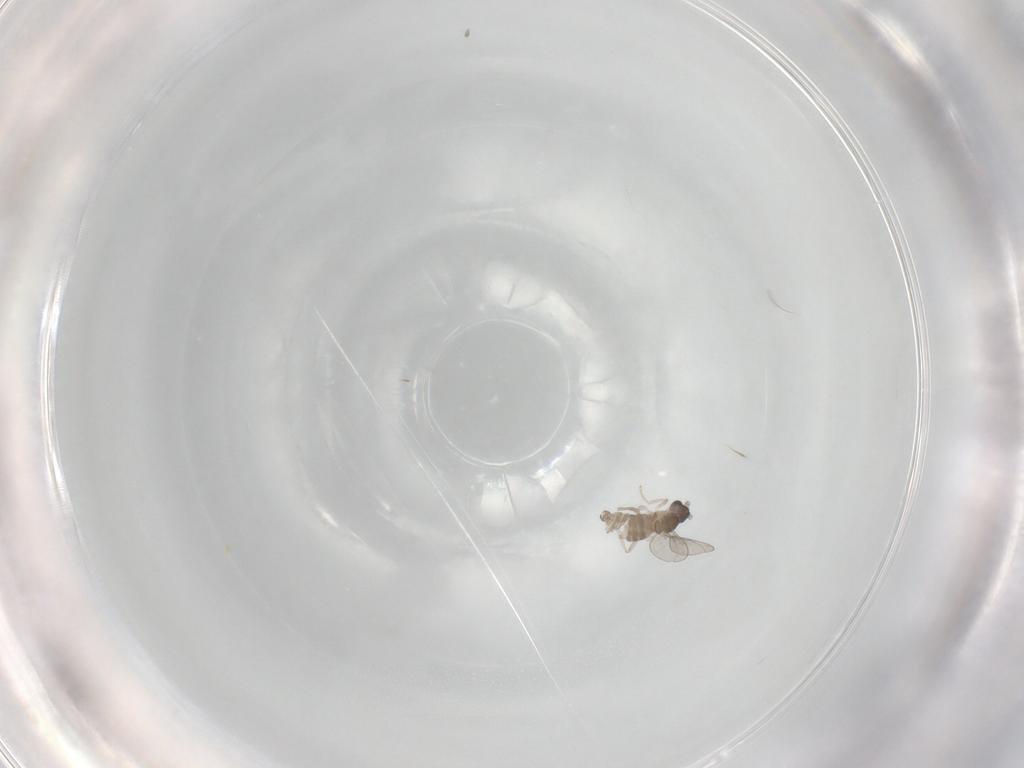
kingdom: Animalia
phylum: Arthropoda
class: Insecta
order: Diptera
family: Cecidomyiidae
